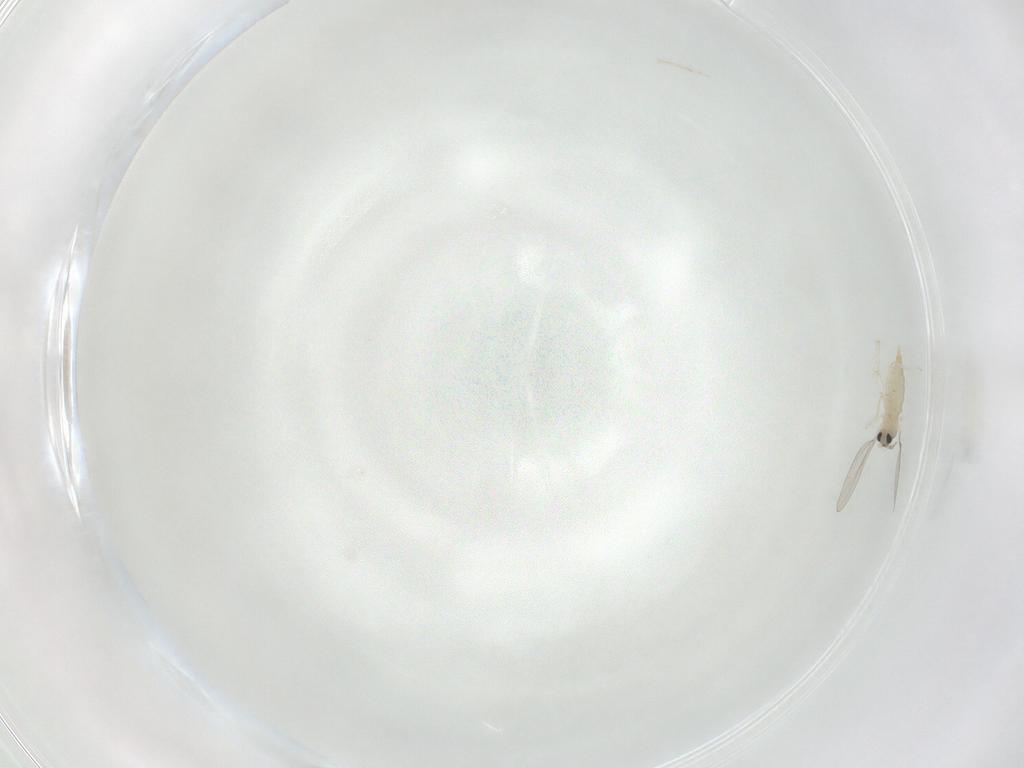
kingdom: Animalia
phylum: Arthropoda
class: Insecta
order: Diptera
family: Cecidomyiidae
